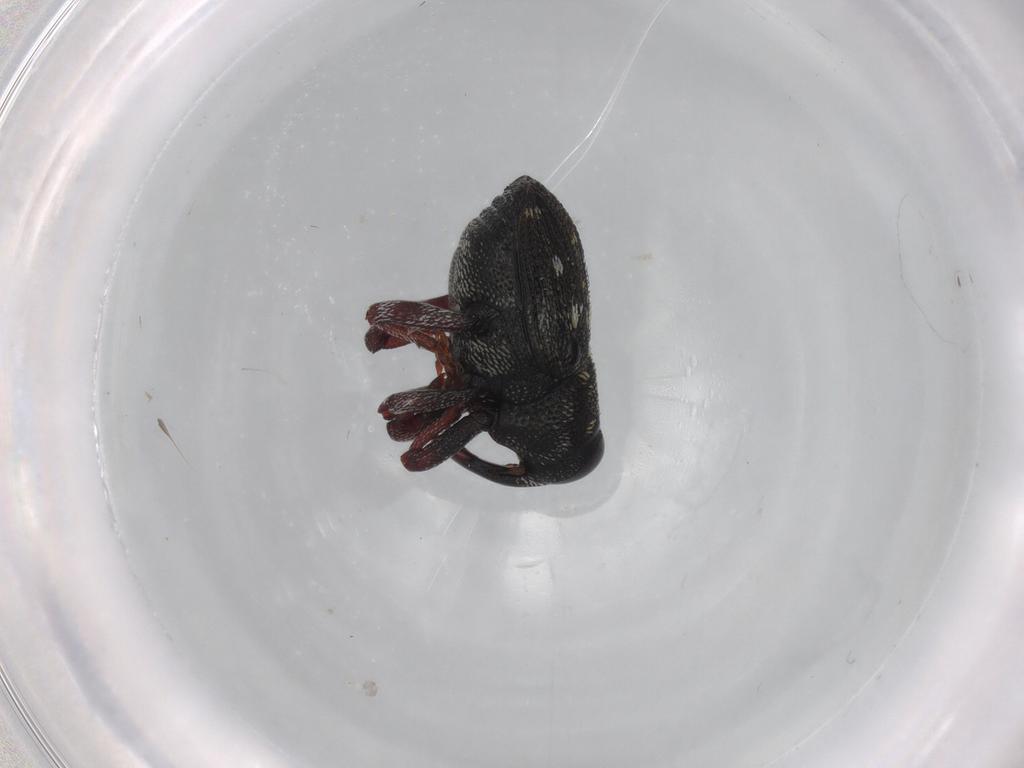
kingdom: Animalia
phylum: Arthropoda
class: Insecta
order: Coleoptera
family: Curculionidae
